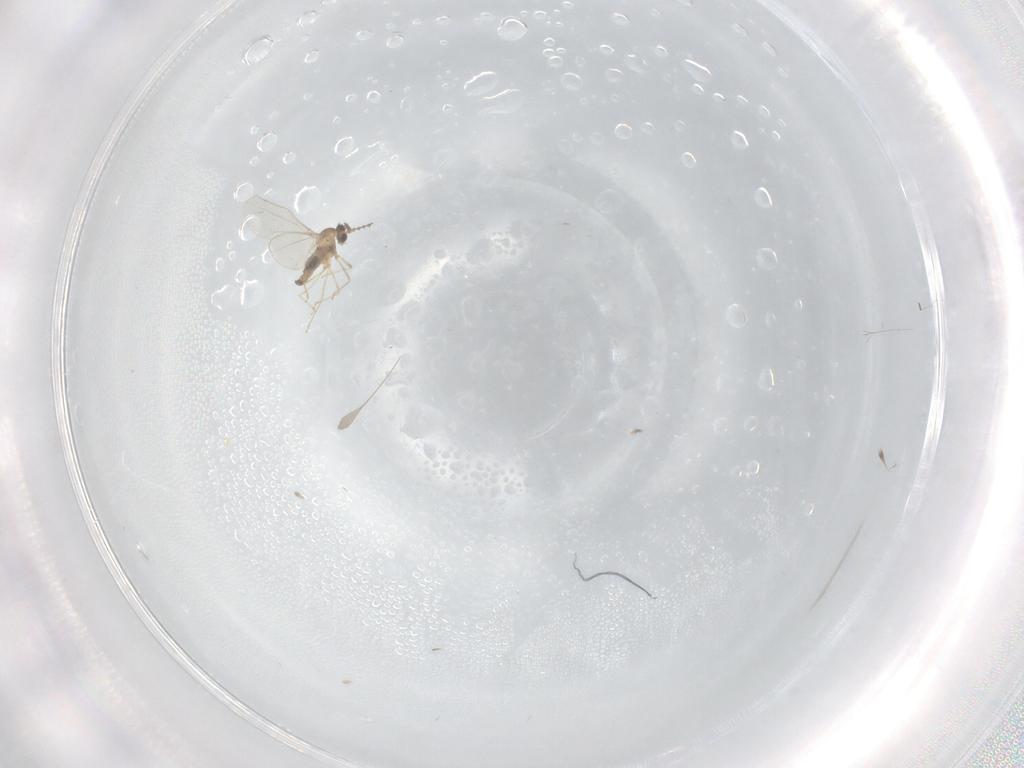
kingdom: Animalia
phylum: Arthropoda
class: Insecta
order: Diptera
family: Cecidomyiidae
